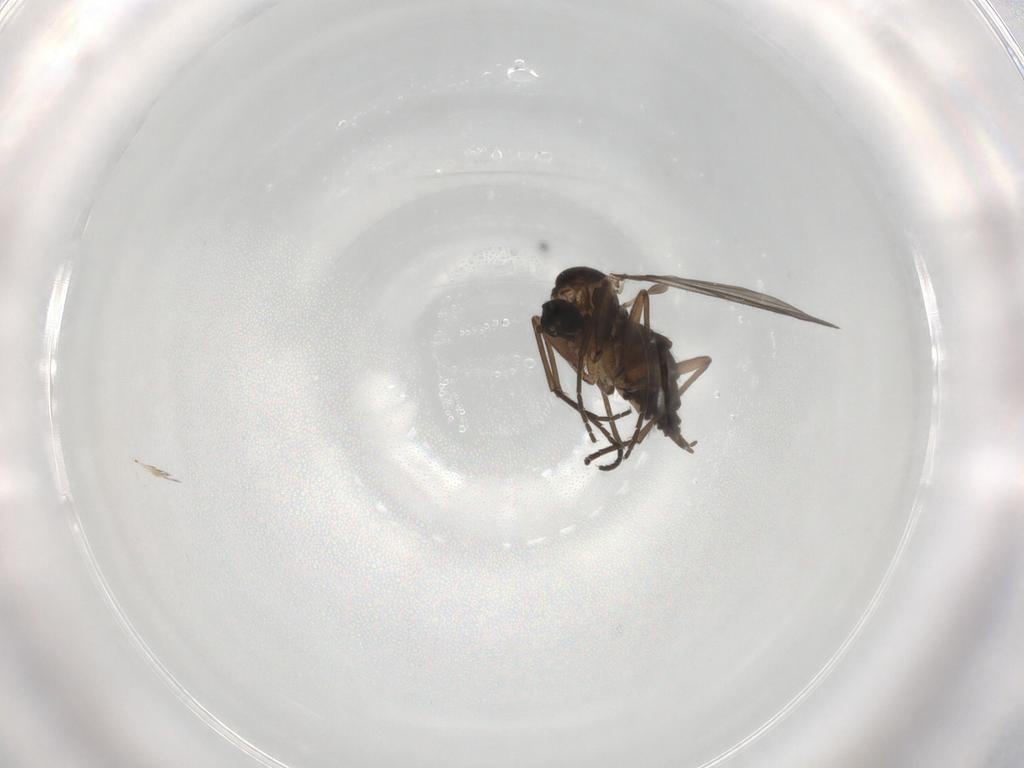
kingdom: Animalia
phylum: Arthropoda
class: Insecta
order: Diptera
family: Sciaridae
